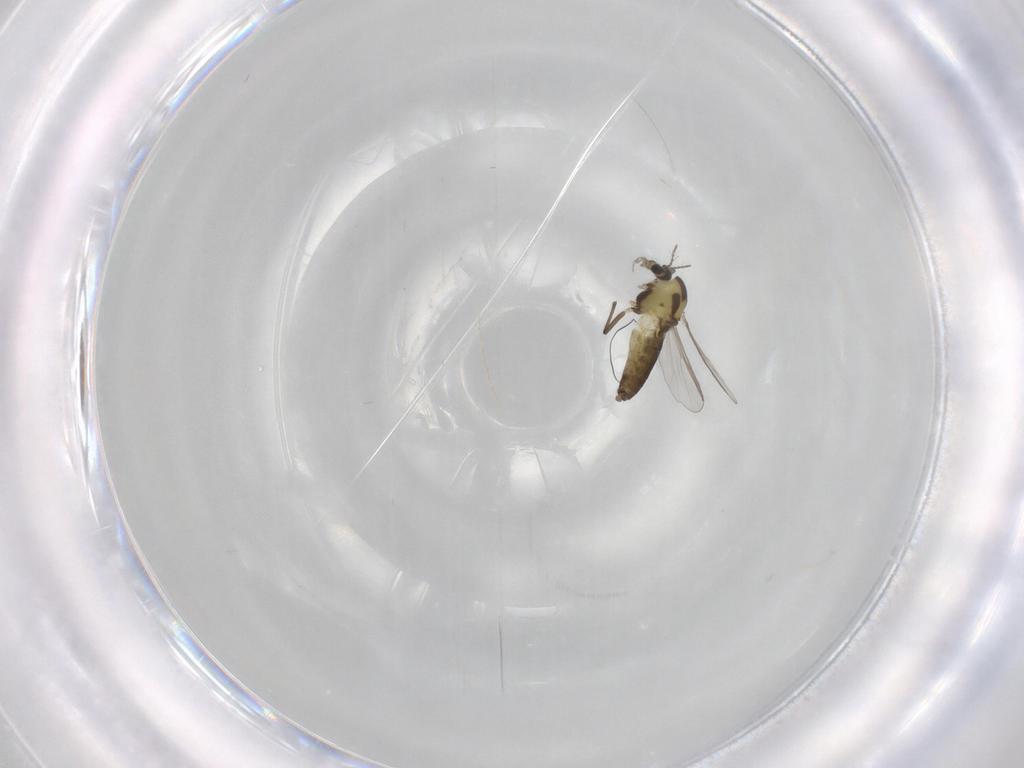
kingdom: Animalia
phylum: Arthropoda
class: Insecta
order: Diptera
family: Chironomidae
